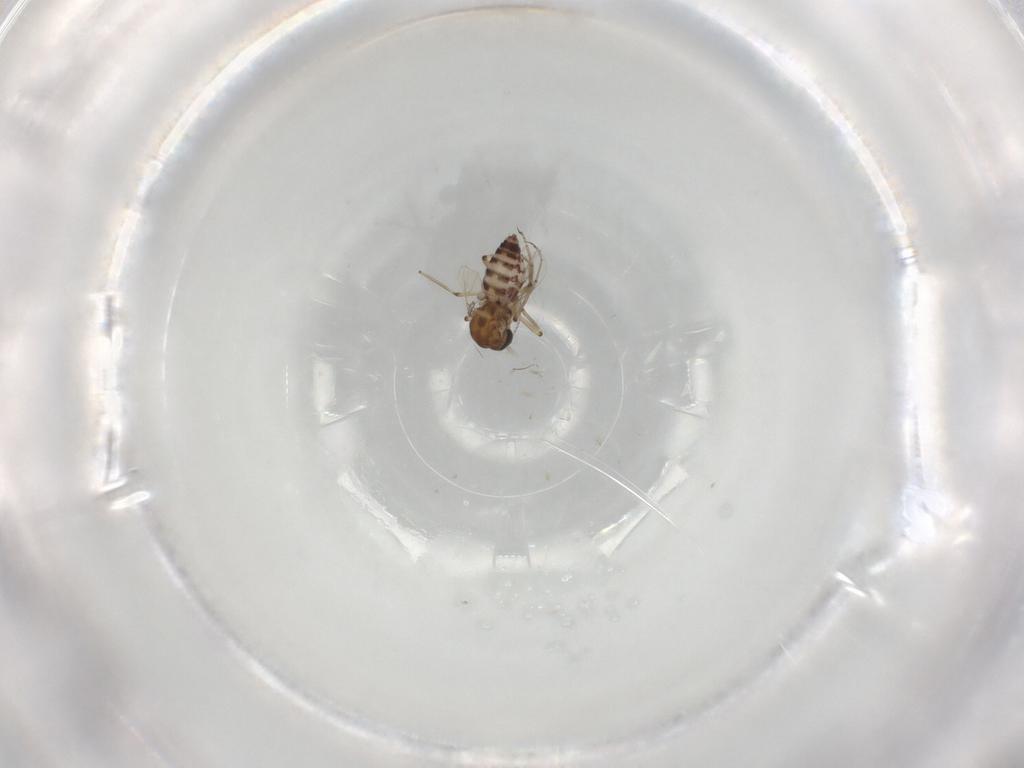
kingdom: Animalia
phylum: Arthropoda
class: Insecta
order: Diptera
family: Ceratopogonidae
